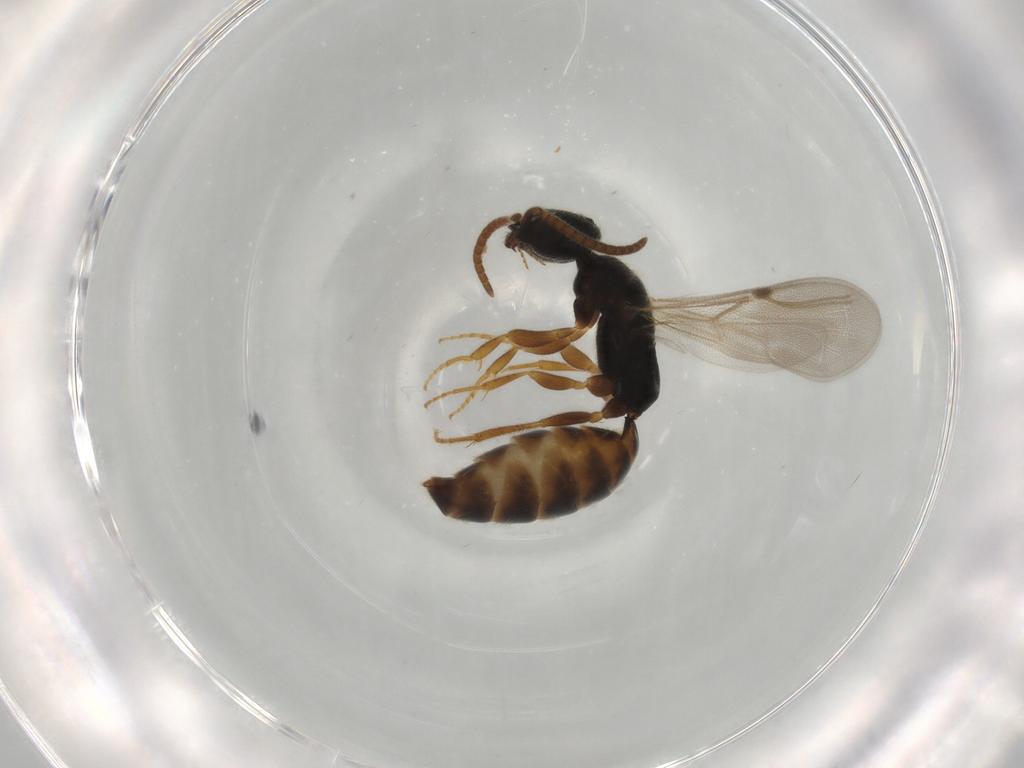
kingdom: Animalia
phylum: Arthropoda
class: Insecta
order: Hymenoptera
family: Bethylidae
